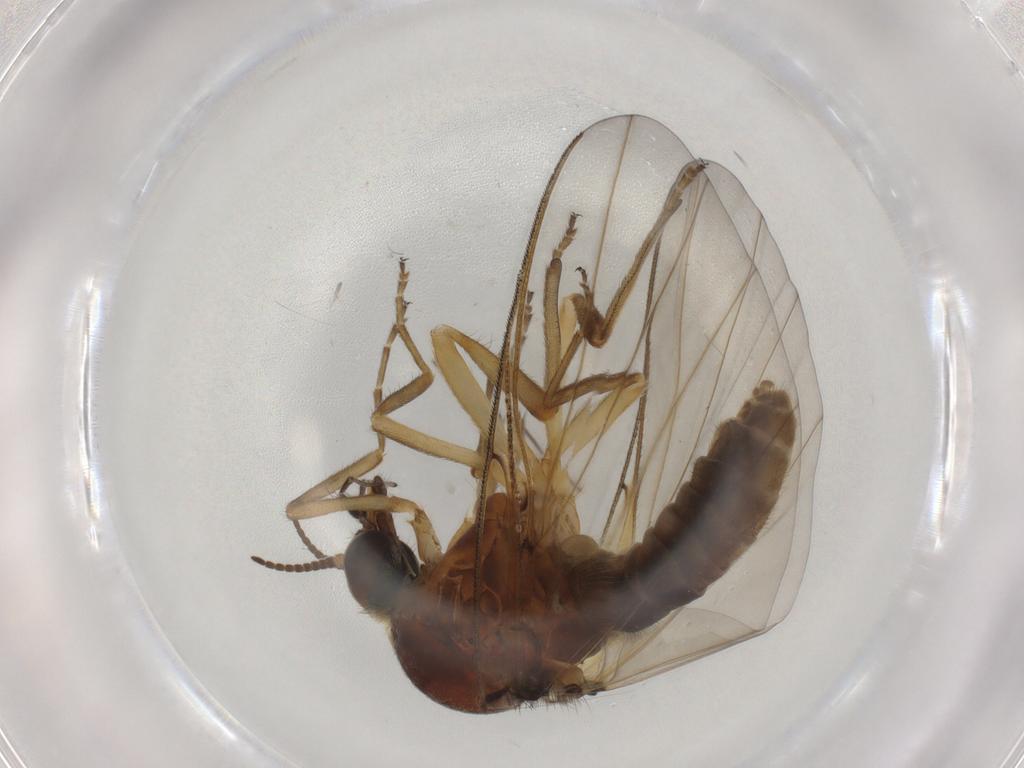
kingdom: Animalia
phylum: Arthropoda
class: Insecta
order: Diptera
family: Simuliidae
